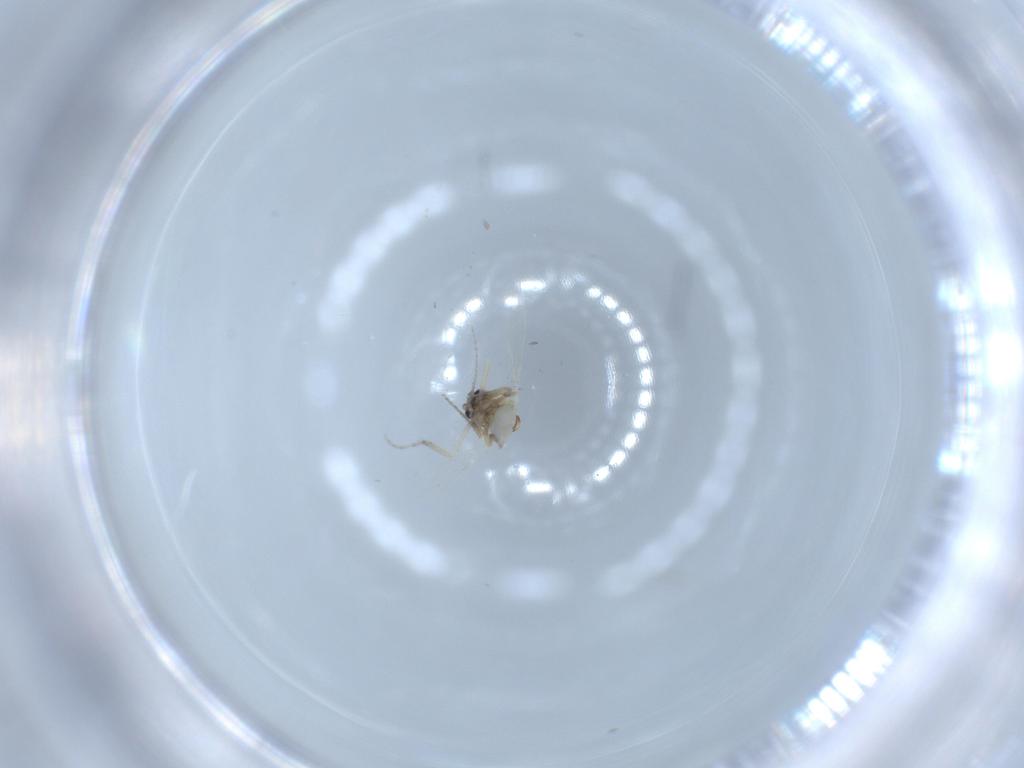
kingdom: Animalia
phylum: Arthropoda
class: Insecta
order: Diptera
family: Ceratopogonidae
